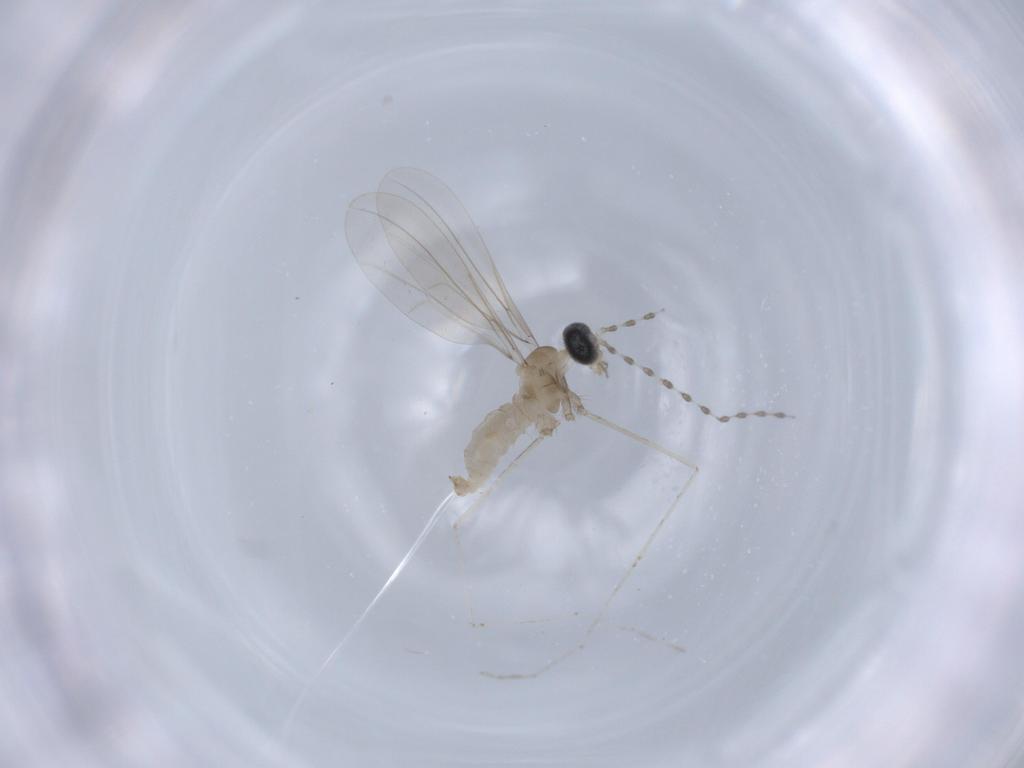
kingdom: Animalia
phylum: Arthropoda
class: Insecta
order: Diptera
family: Cecidomyiidae
